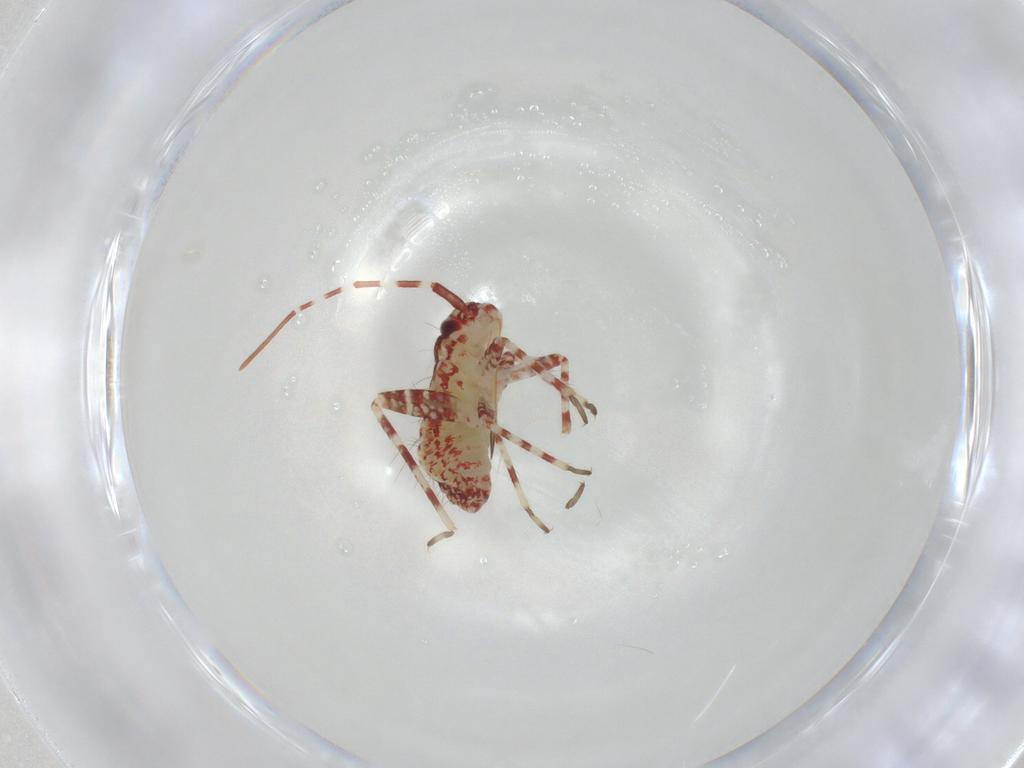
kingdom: Animalia
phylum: Arthropoda
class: Insecta
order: Hemiptera
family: Miridae
